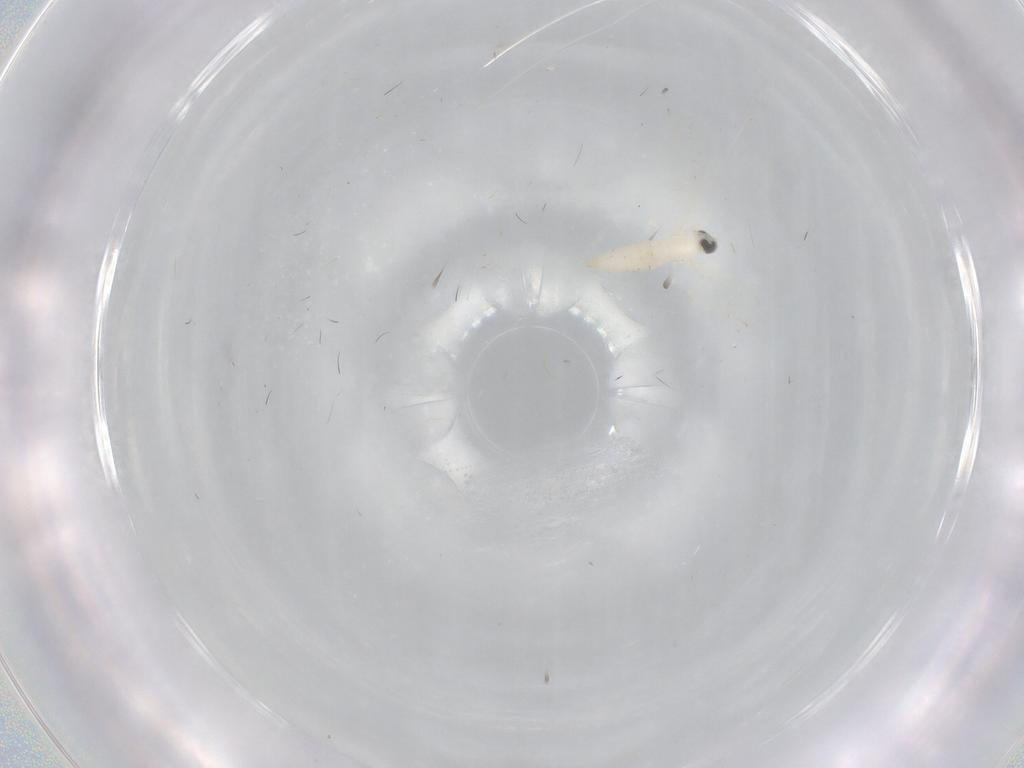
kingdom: Animalia
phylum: Arthropoda
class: Insecta
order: Diptera
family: Cecidomyiidae
